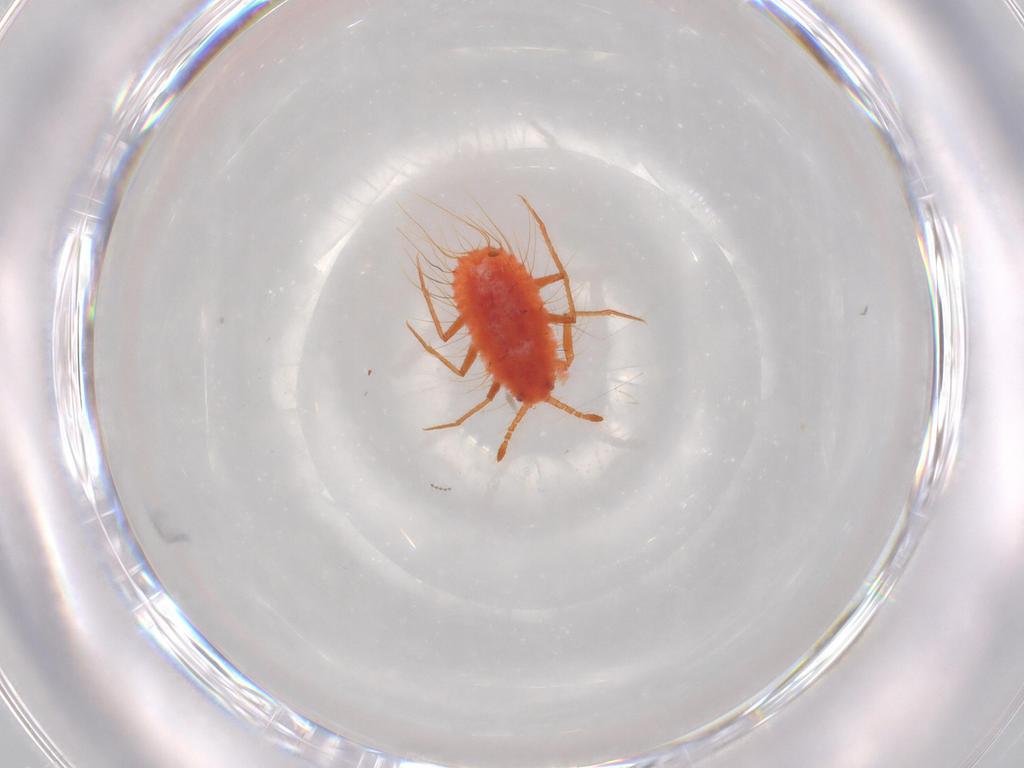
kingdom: Animalia
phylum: Arthropoda
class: Insecta
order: Hemiptera
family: Monophlebidae
